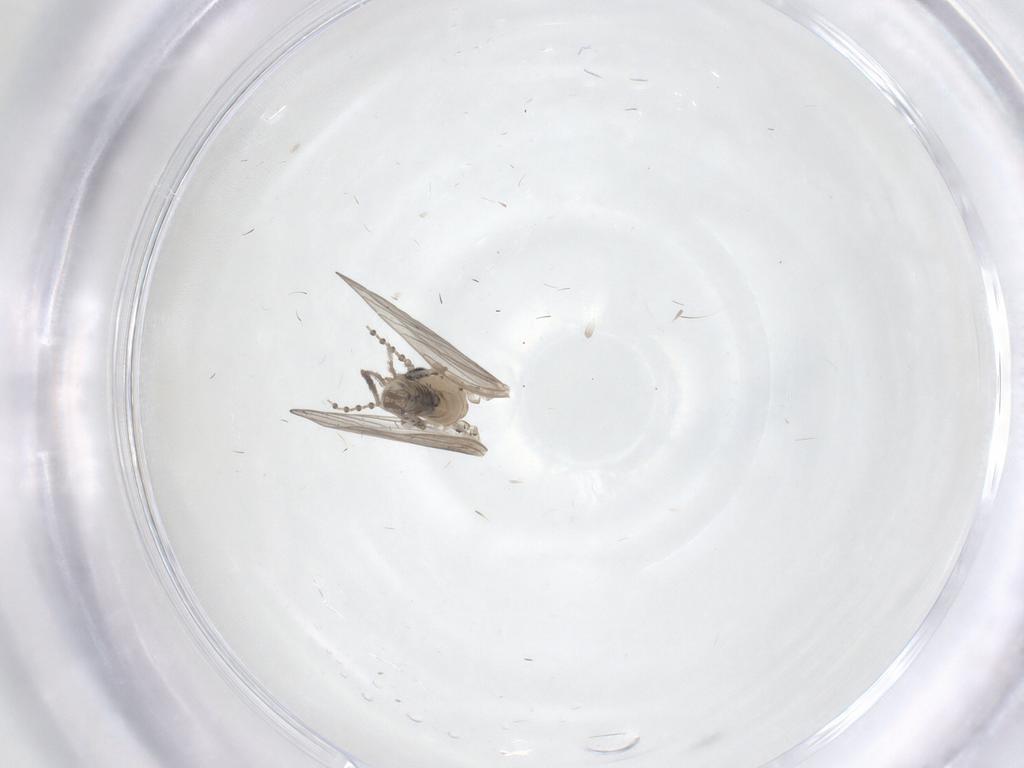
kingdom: Animalia
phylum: Arthropoda
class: Insecta
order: Diptera
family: Psychodidae
